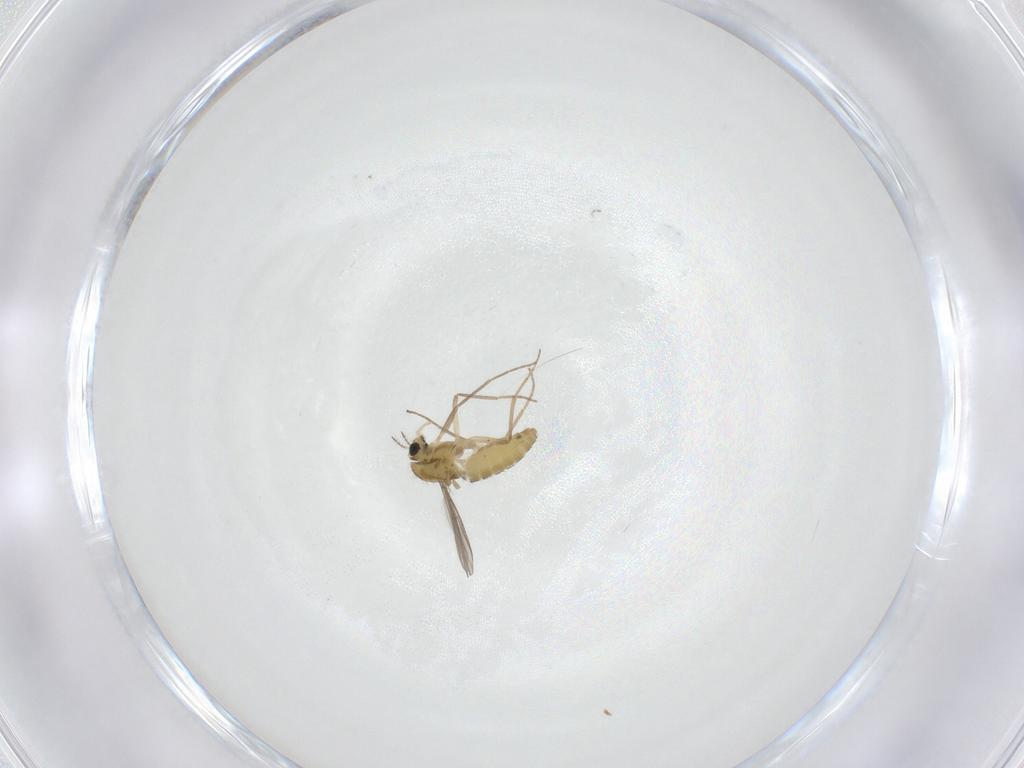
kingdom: Animalia
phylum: Arthropoda
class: Insecta
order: Diptera
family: Chironomidae
